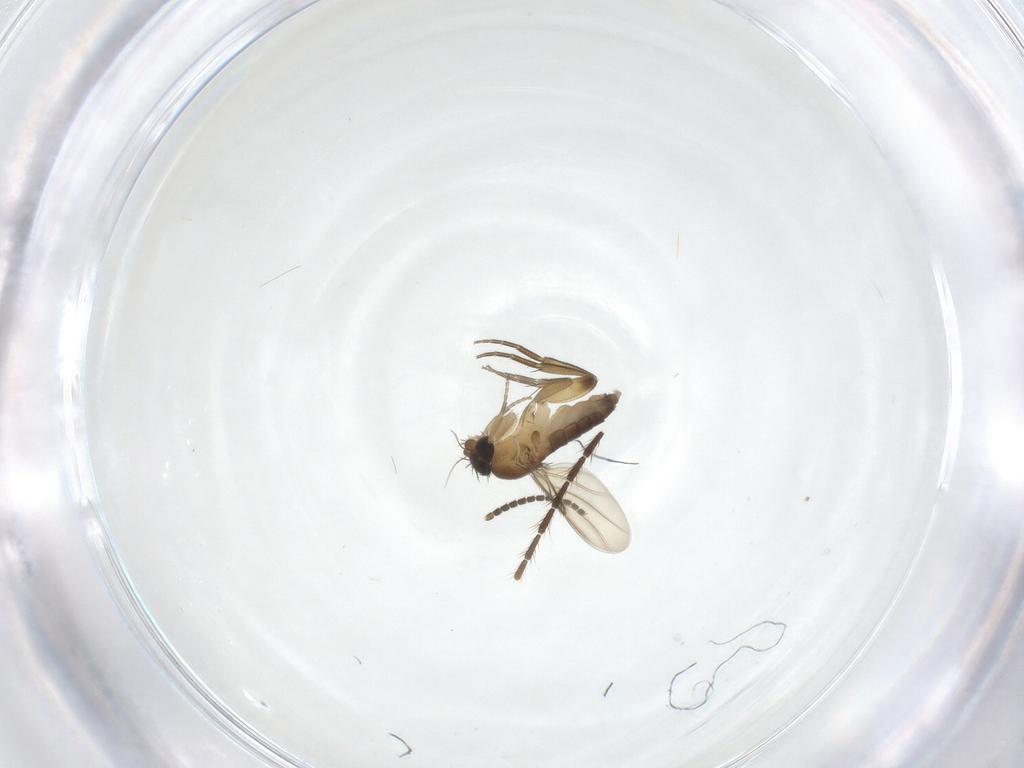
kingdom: Animalia
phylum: Arthropoda
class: Insecta
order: Diptera
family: Phoridae
